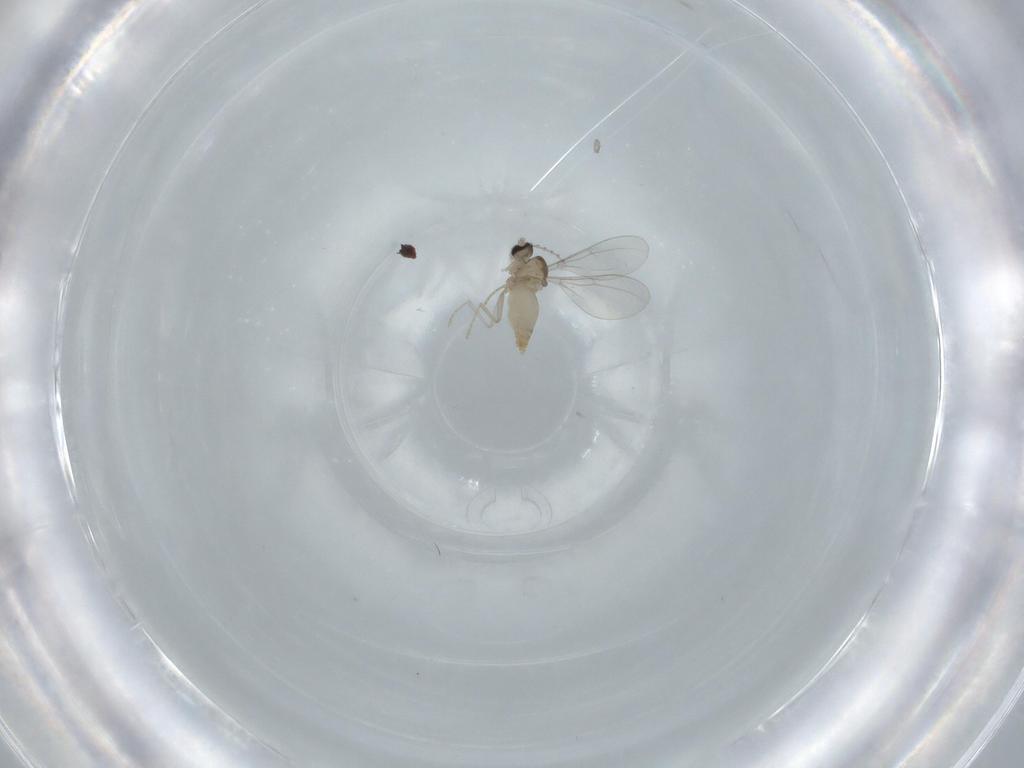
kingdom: Animalia
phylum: Arthropoda
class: Insecta
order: Diptera
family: Cecidomyiidae
